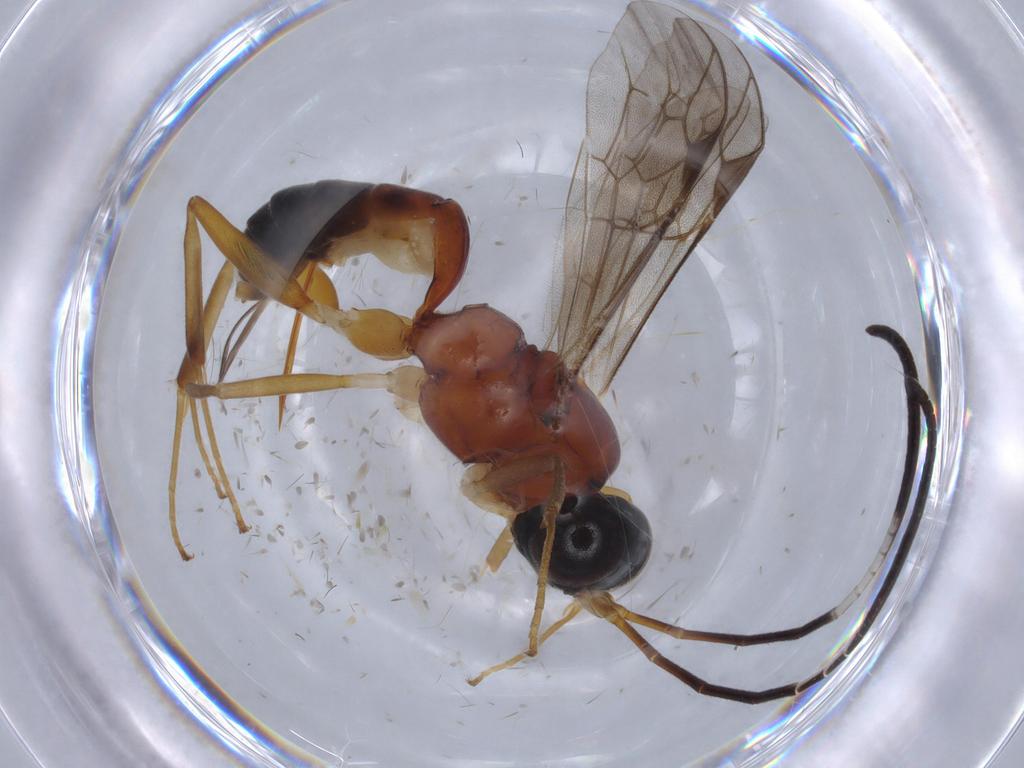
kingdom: Animalia
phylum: Arthropoda
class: Insecta
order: Hymenoptera
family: Ichneumonidae
